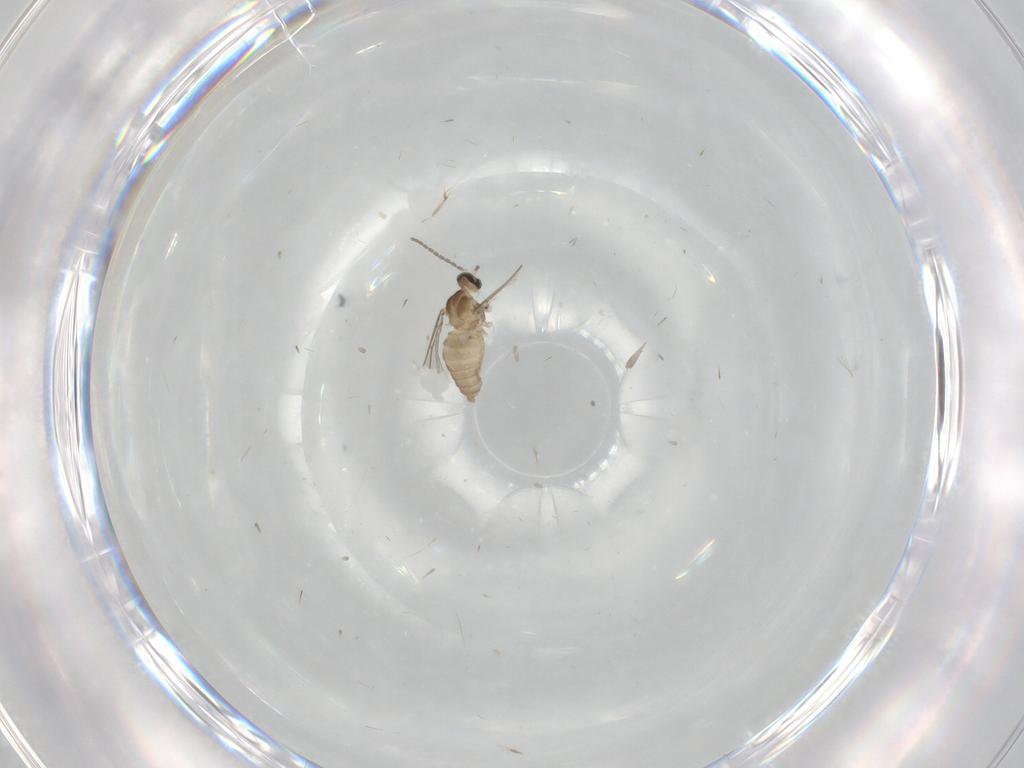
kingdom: Animalia
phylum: Arthropoda
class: Insecta
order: Diptera
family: Cecidomyiidae
